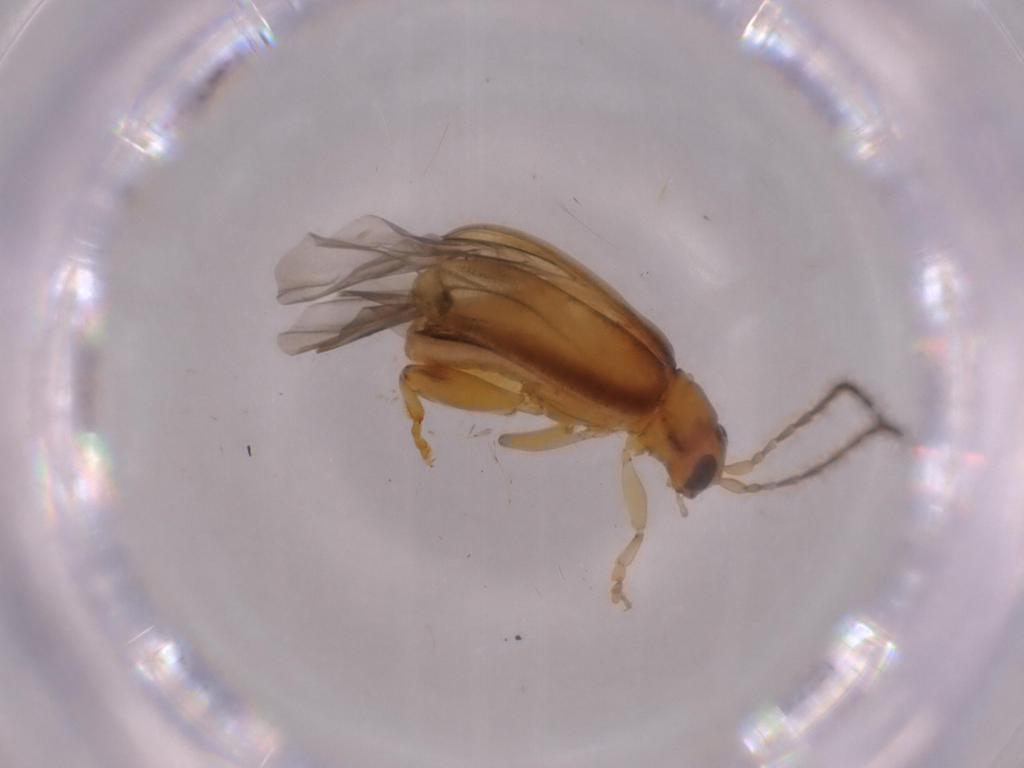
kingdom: Animalia
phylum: Arthropoda
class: Insecta
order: Coleoptera
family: Chrysomelidae
